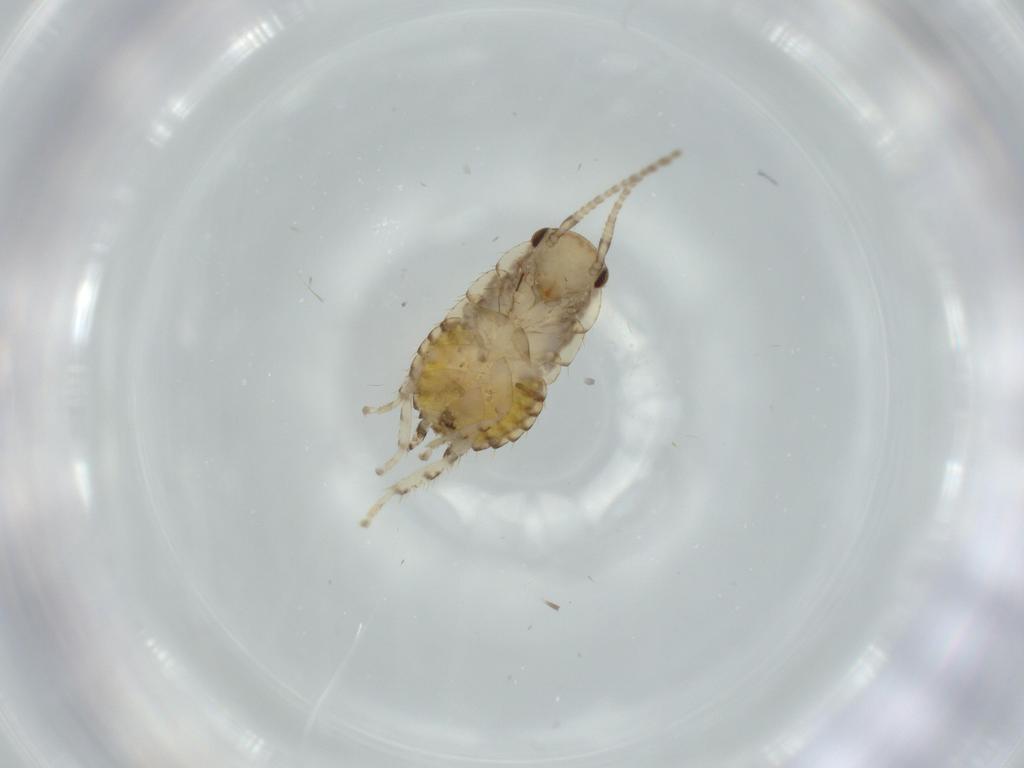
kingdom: Animalia
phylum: Arthropoda
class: Insecta
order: Blattodea
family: Ectobiidae
